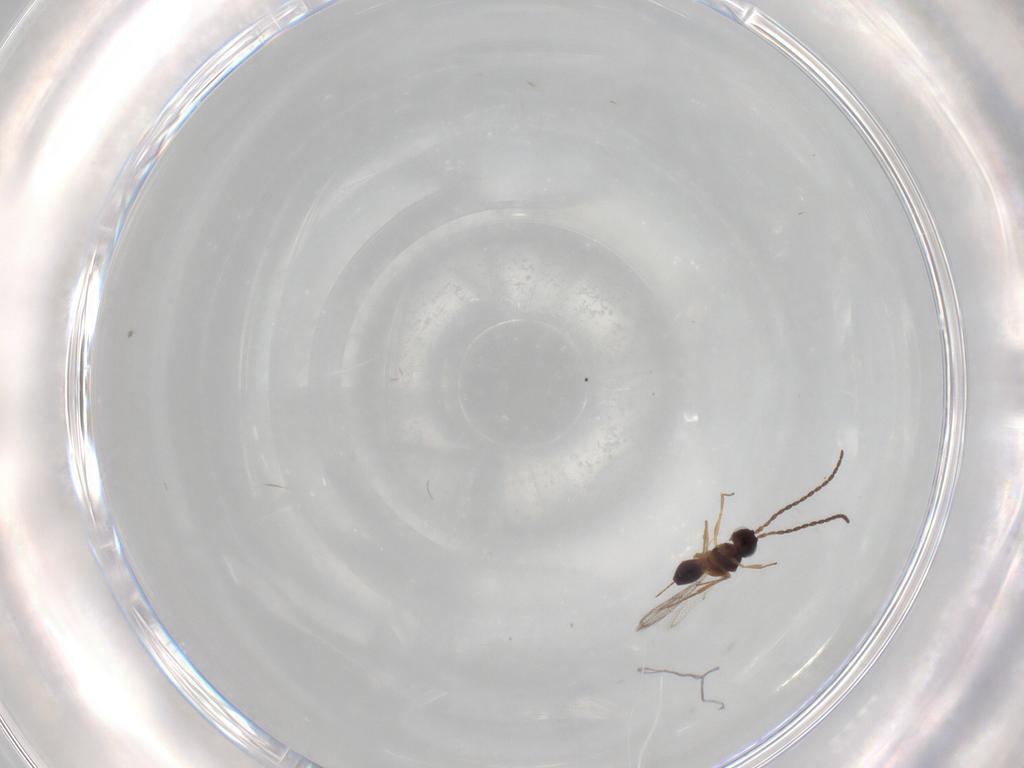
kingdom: Animalia
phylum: Arthropoda
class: Insecta
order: Hymenoptera
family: Figitidae
